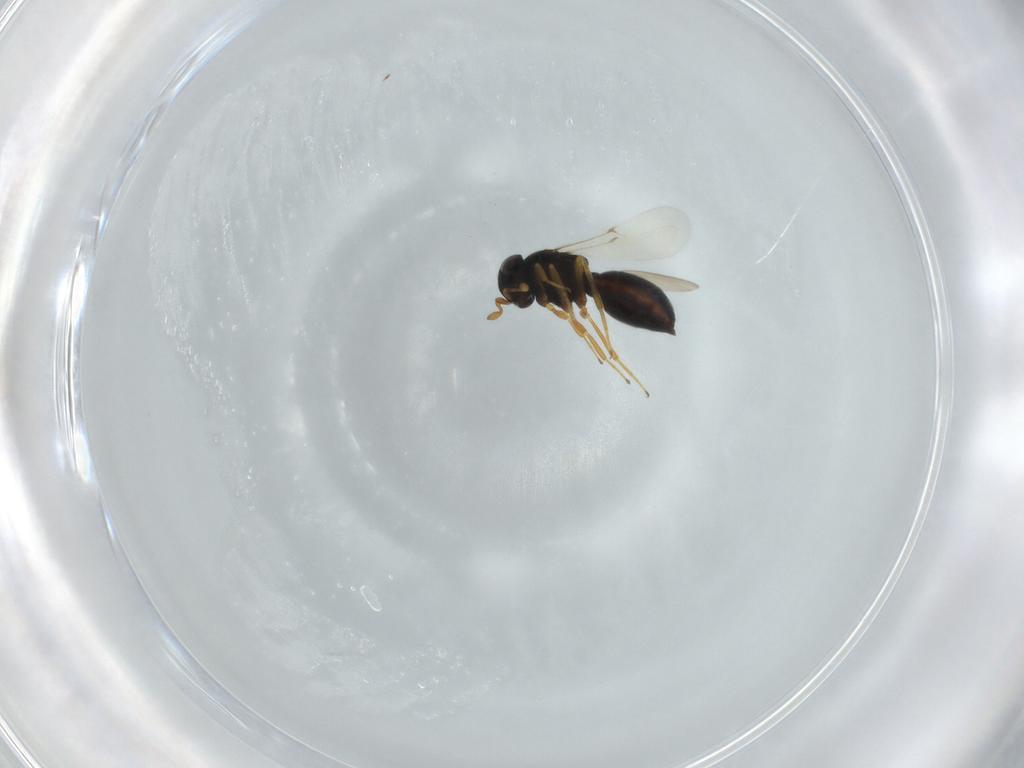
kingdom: Animalia
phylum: Arthropoda
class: Insecta
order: Hymenoptera
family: Scelionidae
